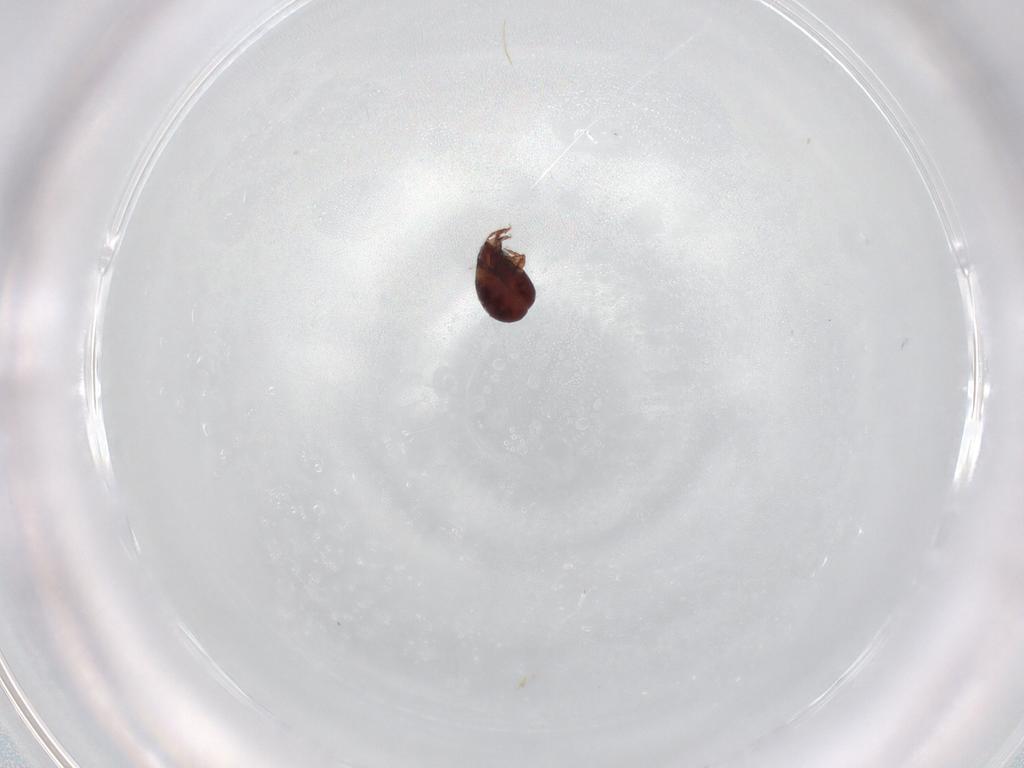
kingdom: Animalia
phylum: Arthropoda
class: Arachnida
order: Sarcoptiformes
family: Humerobatidae
